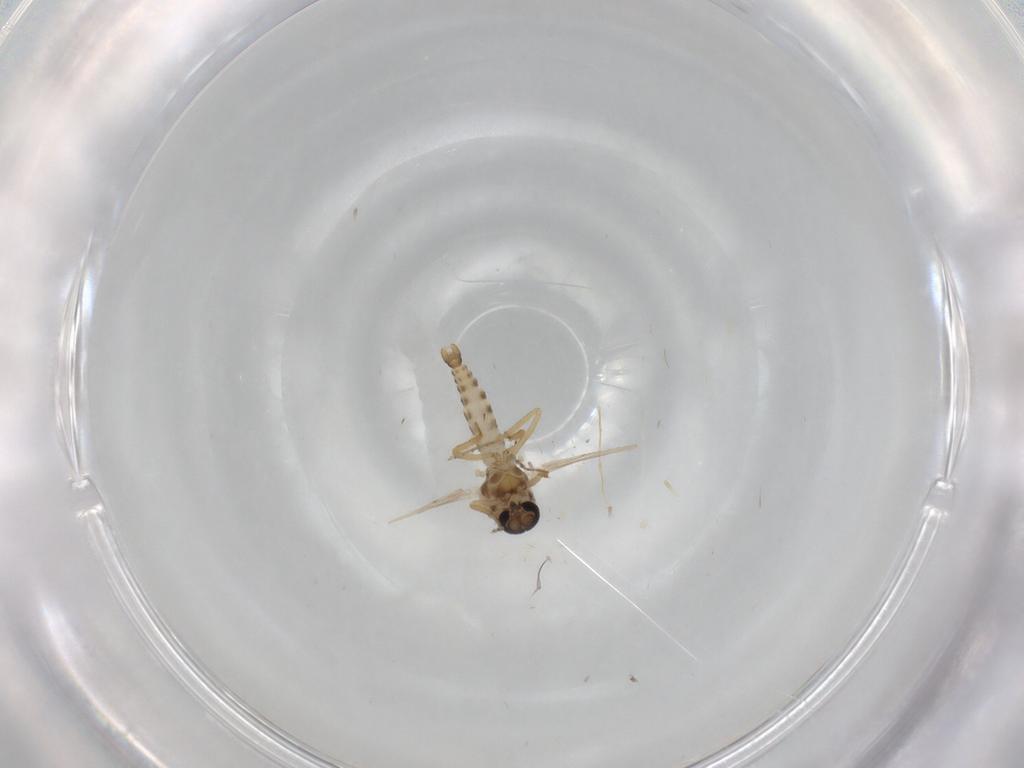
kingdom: Animalia
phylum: Arthropoda
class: Insecta
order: Diptera
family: Ceratopogonidae
